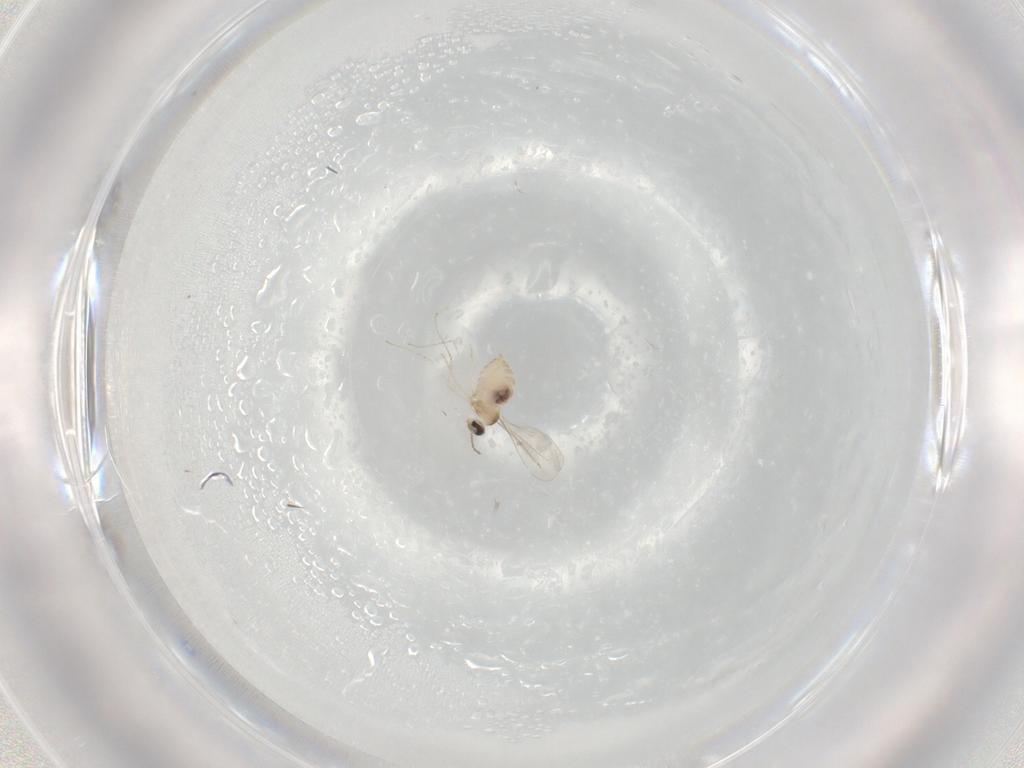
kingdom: Animalia
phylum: Arthropoda
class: Insecta
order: Diptera
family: Cecidomyiidae
